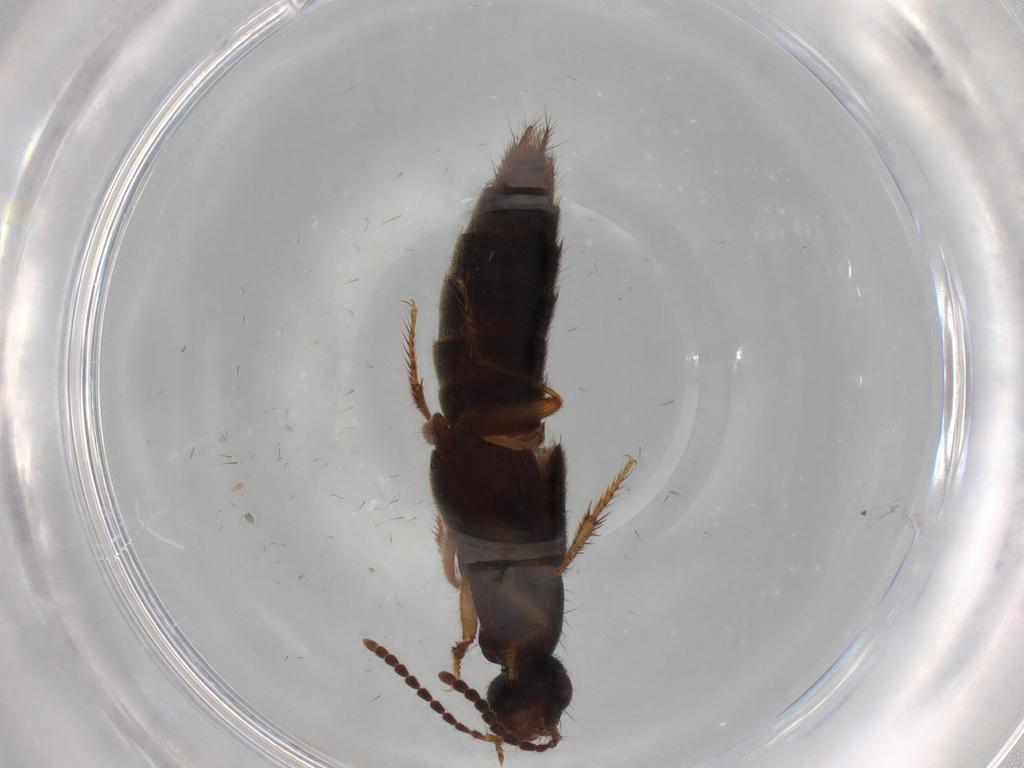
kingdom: Animalia
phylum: Arthropoda
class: Insecta
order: Coleoptera
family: Staphylinidae
